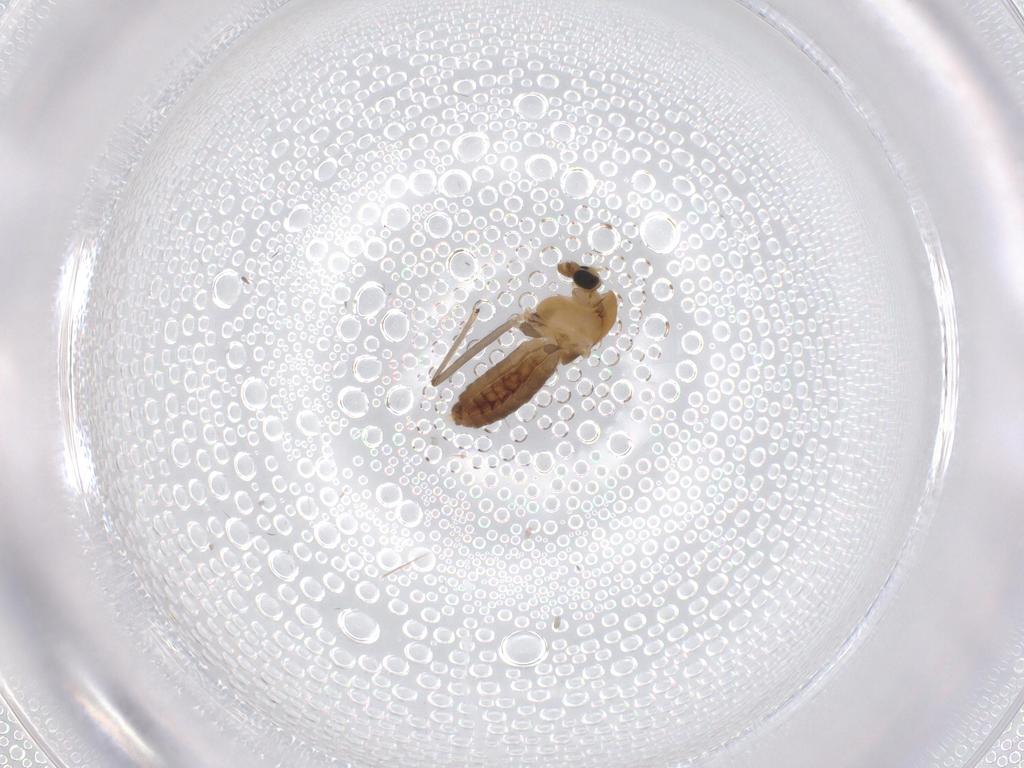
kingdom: Animalia
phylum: Arthropoda
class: Insecta
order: Diptera
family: Chironomidae
